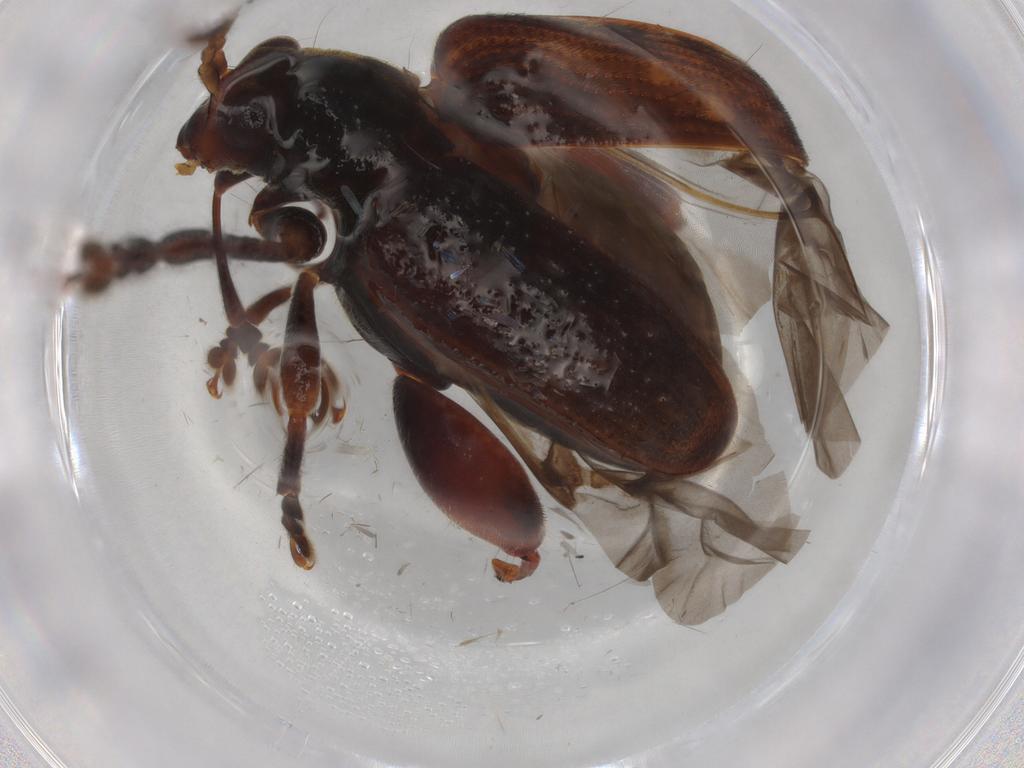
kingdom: Animalia
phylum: Arthropoda
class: Insecta
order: Coleoptera
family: Chrysomelidae
